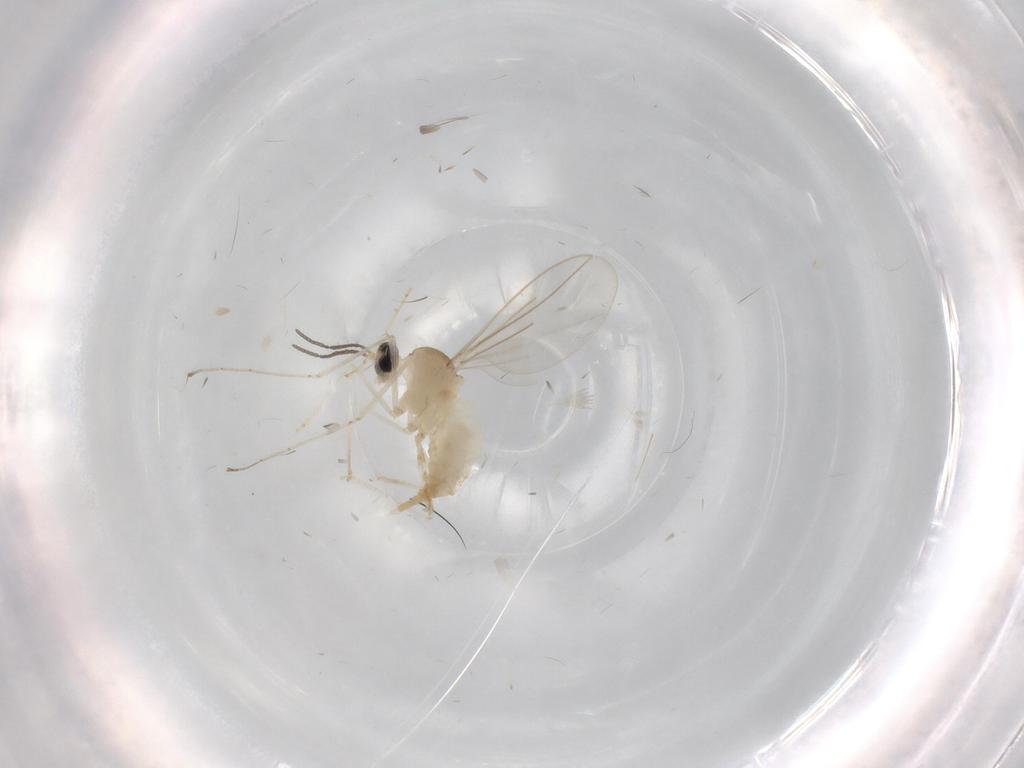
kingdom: Animalia
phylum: Arthropoda
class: Insecta
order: Diptera
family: Cecidomyiidae
